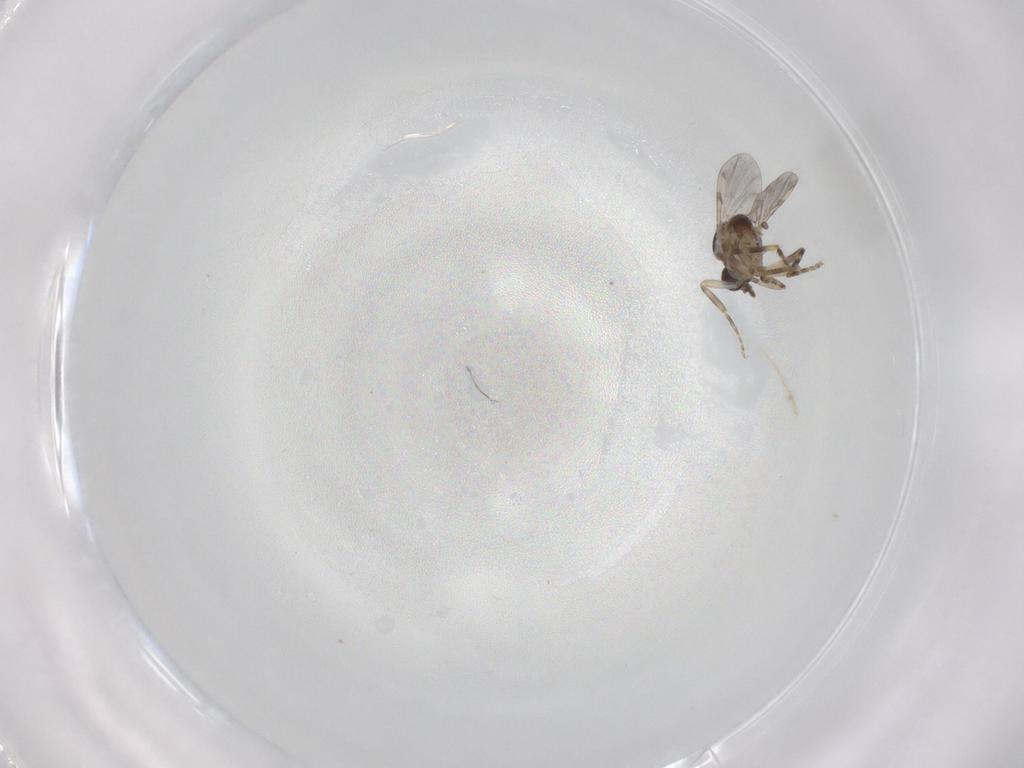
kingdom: Animalia
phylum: Arthropoda
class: Insecta
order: Diptera
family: Ceratopogonidae
